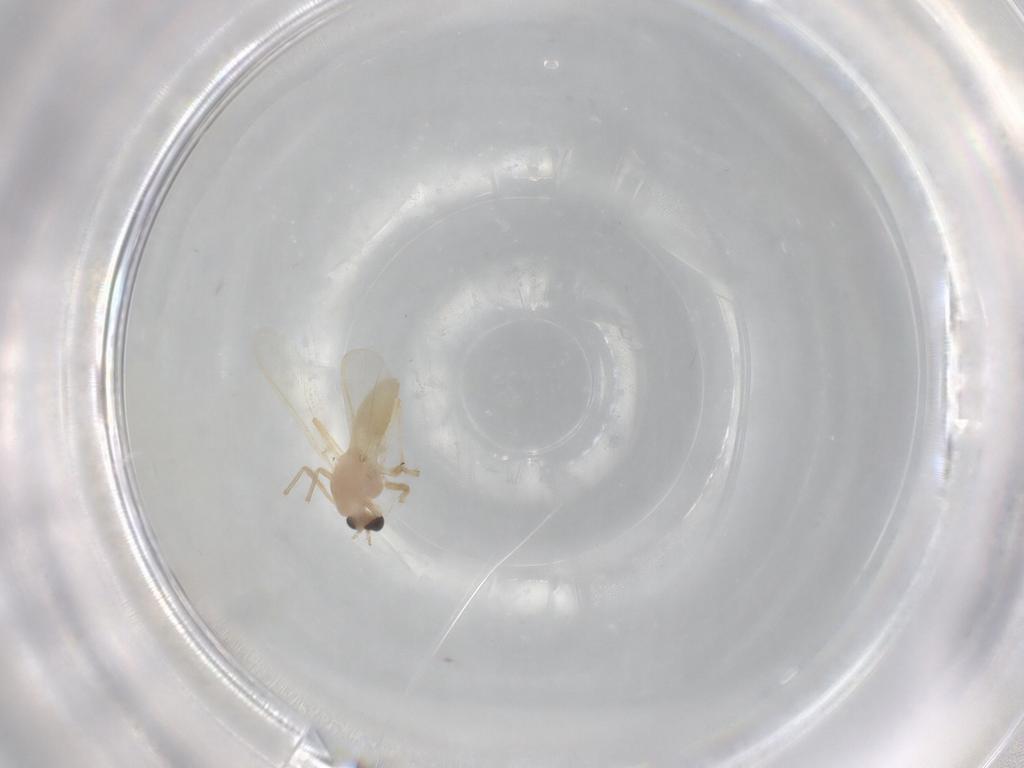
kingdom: Animalia
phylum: Arthropoda
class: Insecta
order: Diptera
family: Chironomidae
